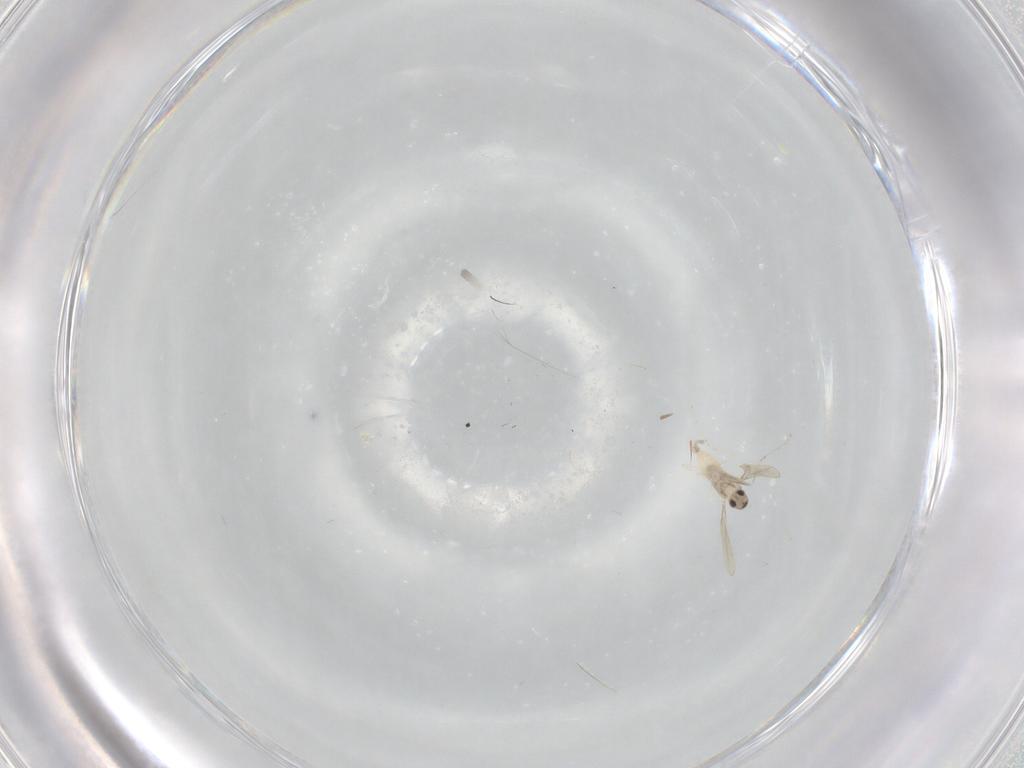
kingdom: Animalia
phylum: Arthropoda
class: Insecta
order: Diptera
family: Cecidomyiidae
